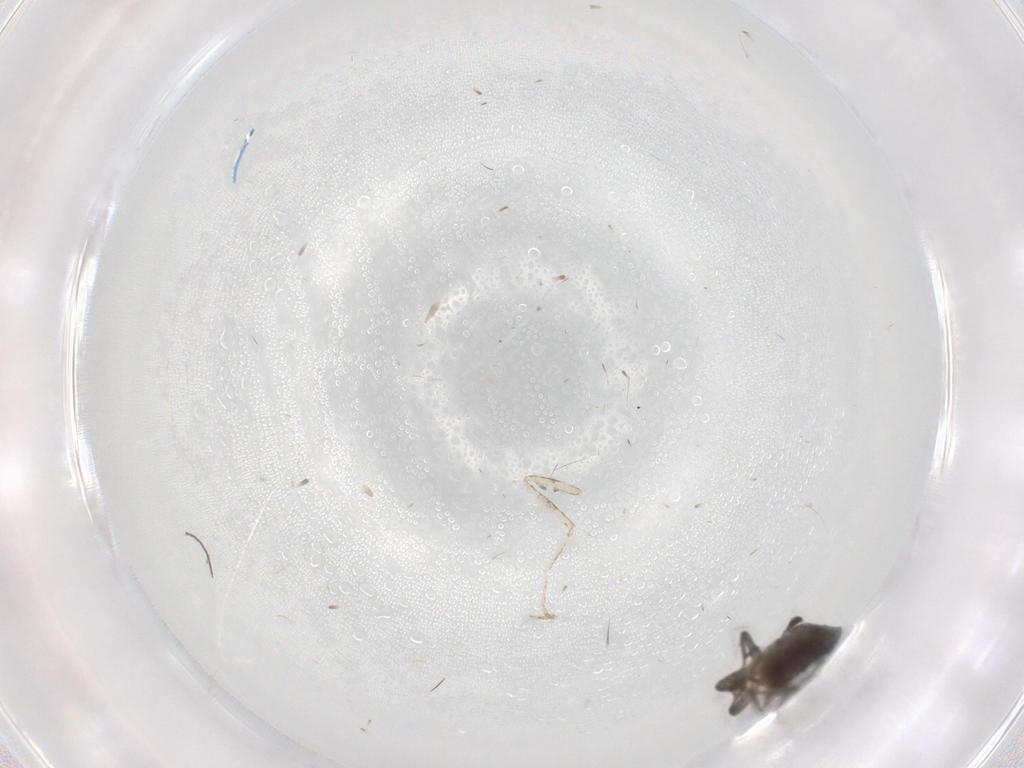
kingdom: Animalia
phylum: Arthropoda
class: Insecta
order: Diptera
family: Chironomidae
